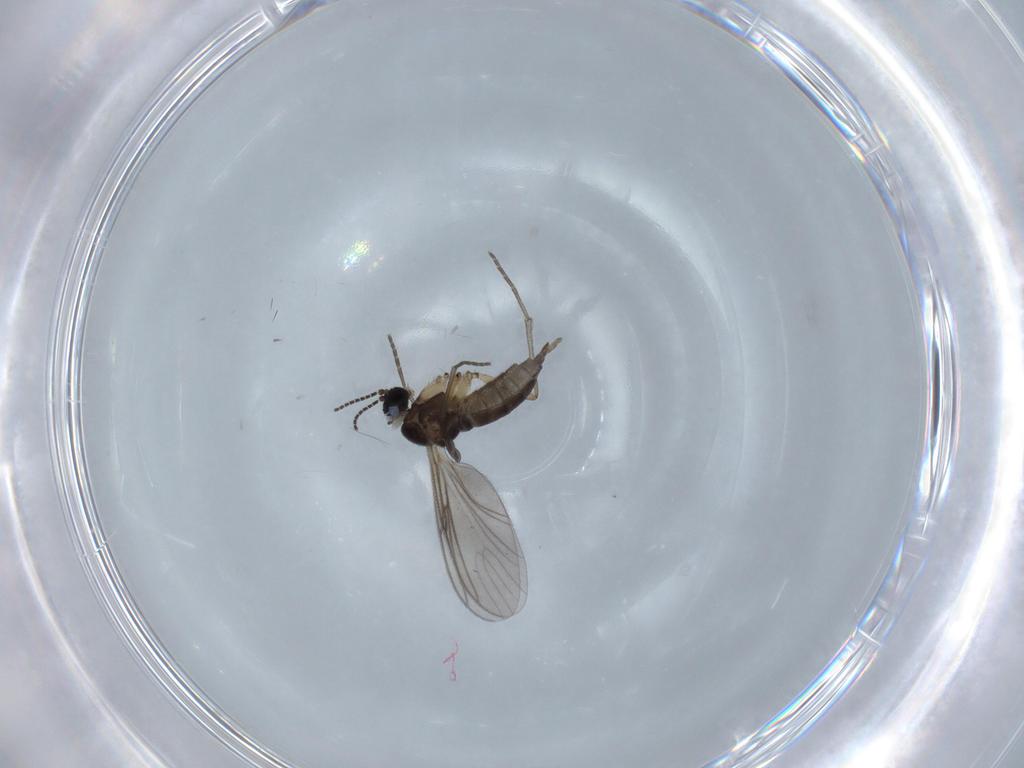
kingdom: Animalia
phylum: Arthropoda
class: Insecta
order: Diptera
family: Sciaridae
